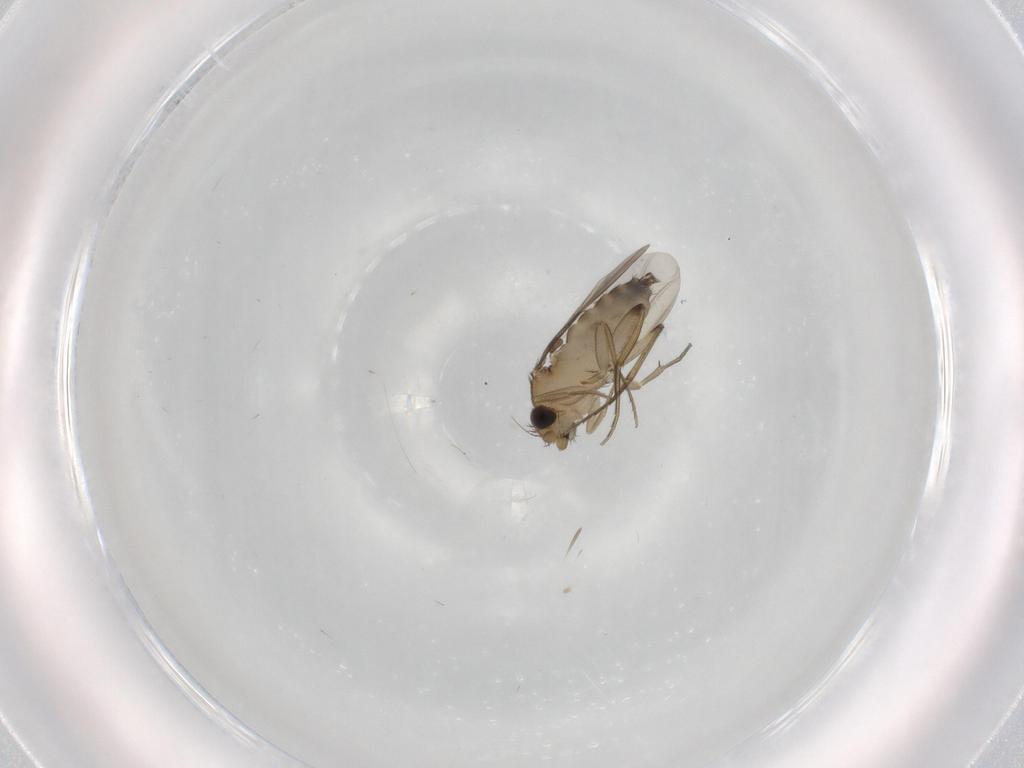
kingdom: Animalia
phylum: Arthropoda
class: Insecta
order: Diptera
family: Phoridae
